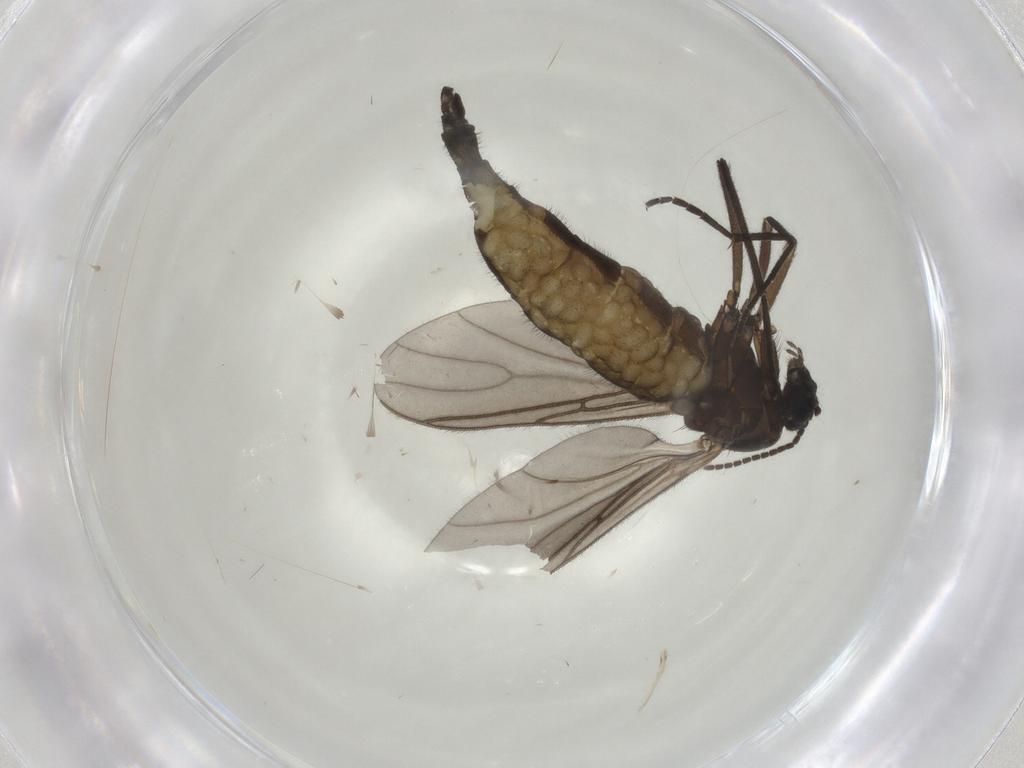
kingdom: Animalia
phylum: Arthropoda
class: Insecta
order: Diptera
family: Sciaridae
